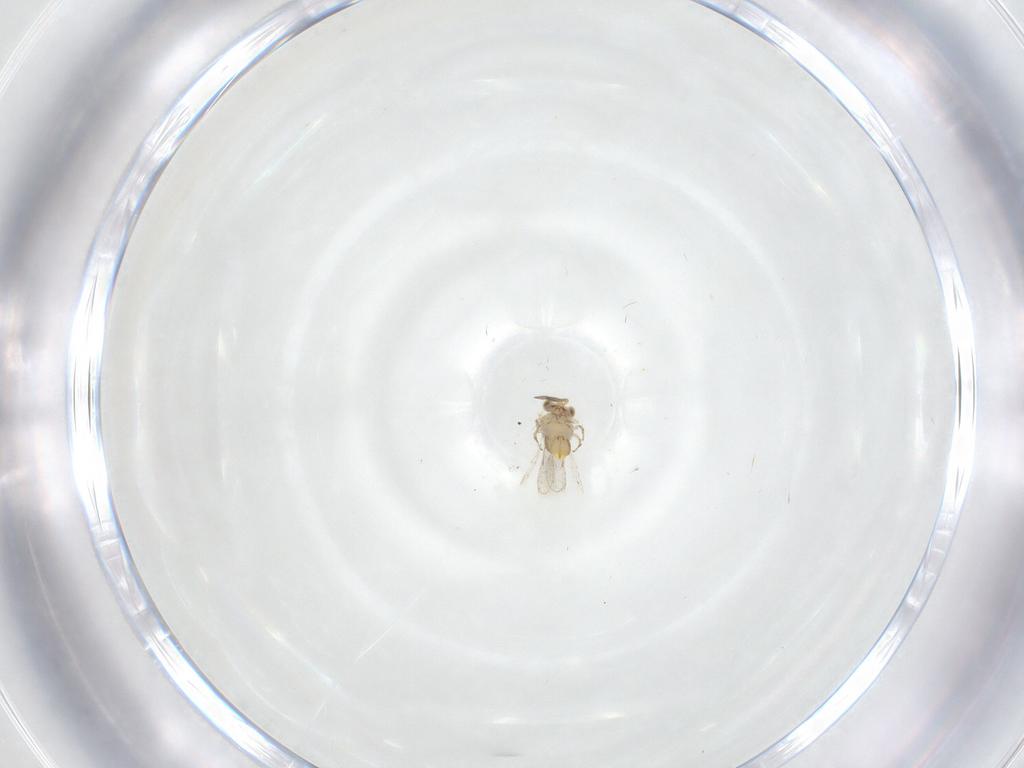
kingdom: Animalia
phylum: Arthropoda
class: Insecta
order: Hymenoptera
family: Aphelinidae
